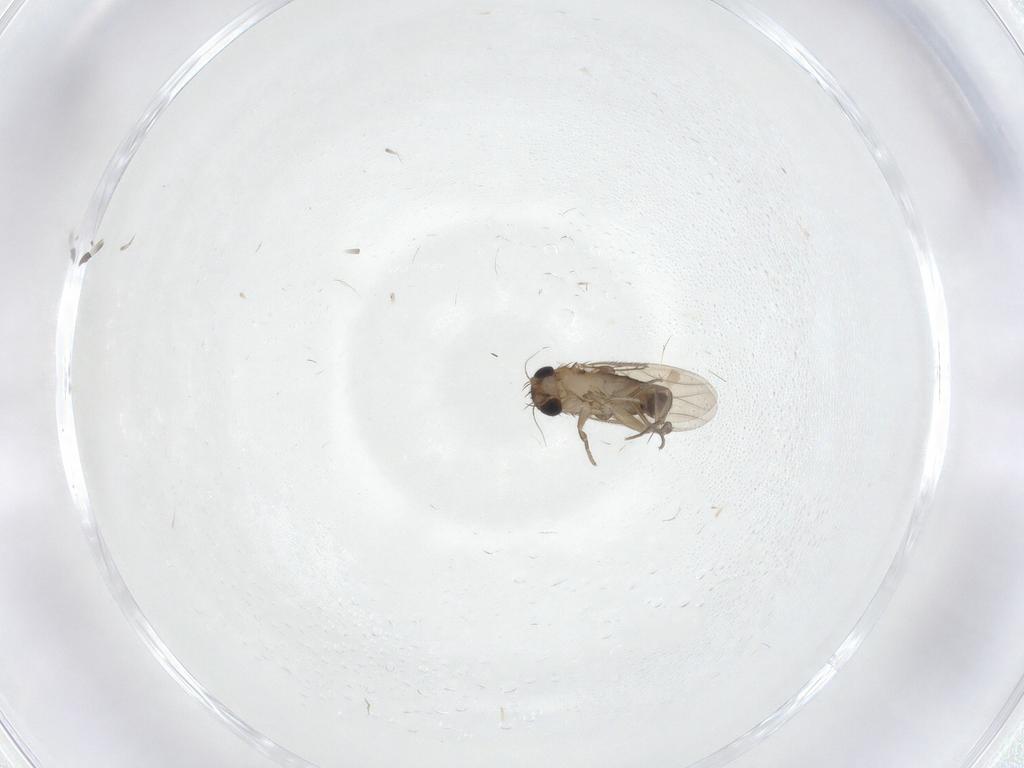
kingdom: Animalia
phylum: Arthropoda
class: Insecta
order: Diptera
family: Phoridae
